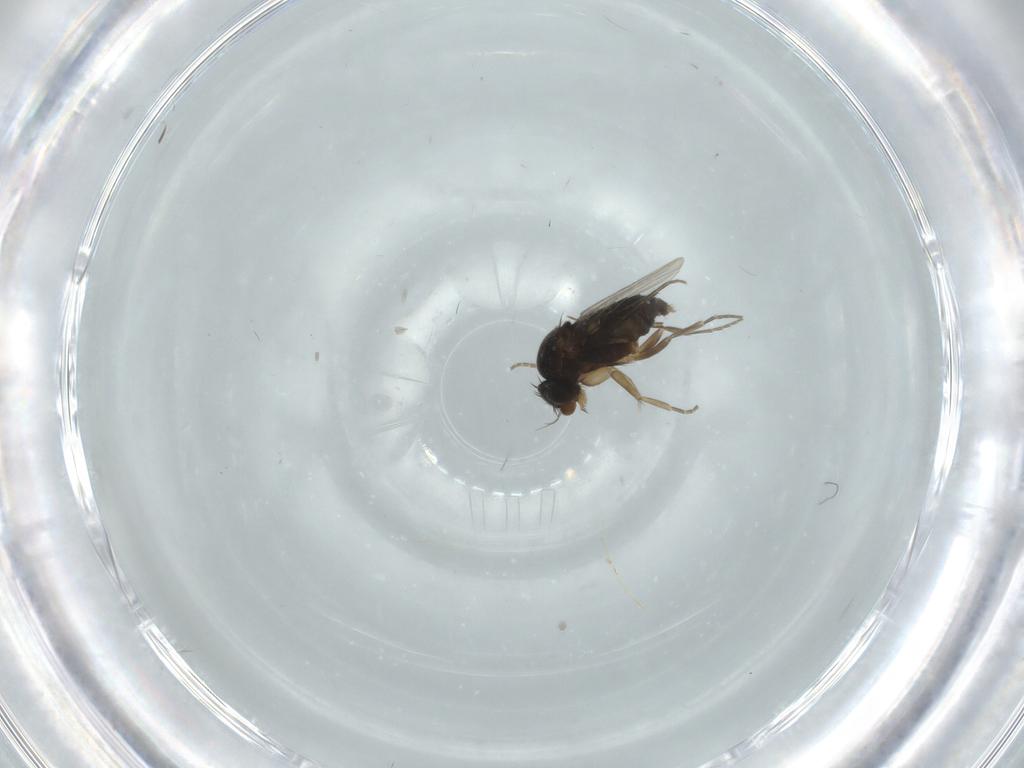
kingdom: Animalia
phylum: Arthropoda
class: Insecta
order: Diptera
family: Phoridae
